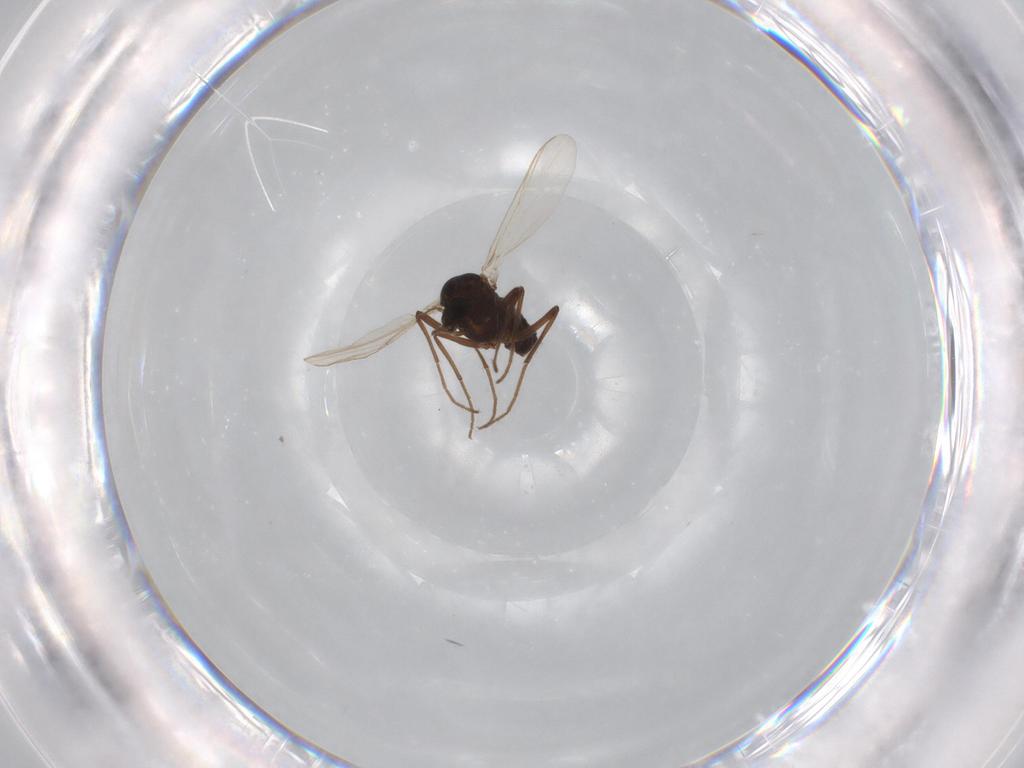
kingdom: Animalia
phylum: Arthropoda
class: Insecta
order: Diptera
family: Chironomidae
